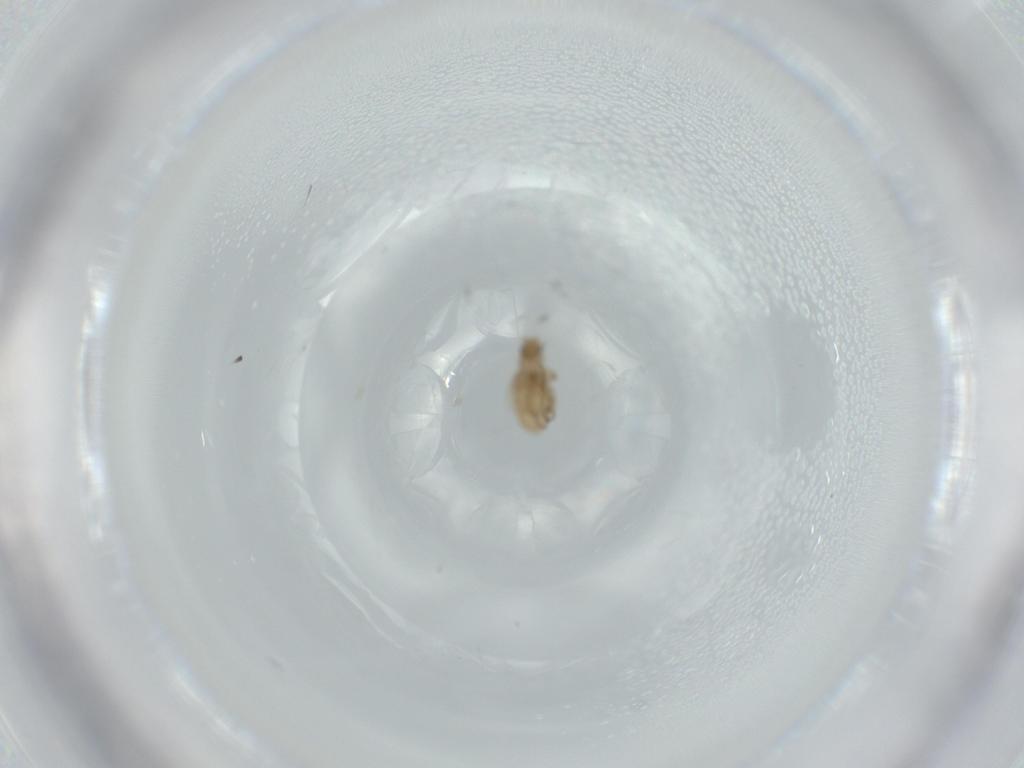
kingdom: Animalia
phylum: Arthropoda
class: Insecta
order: Diptera
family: Phoridae
